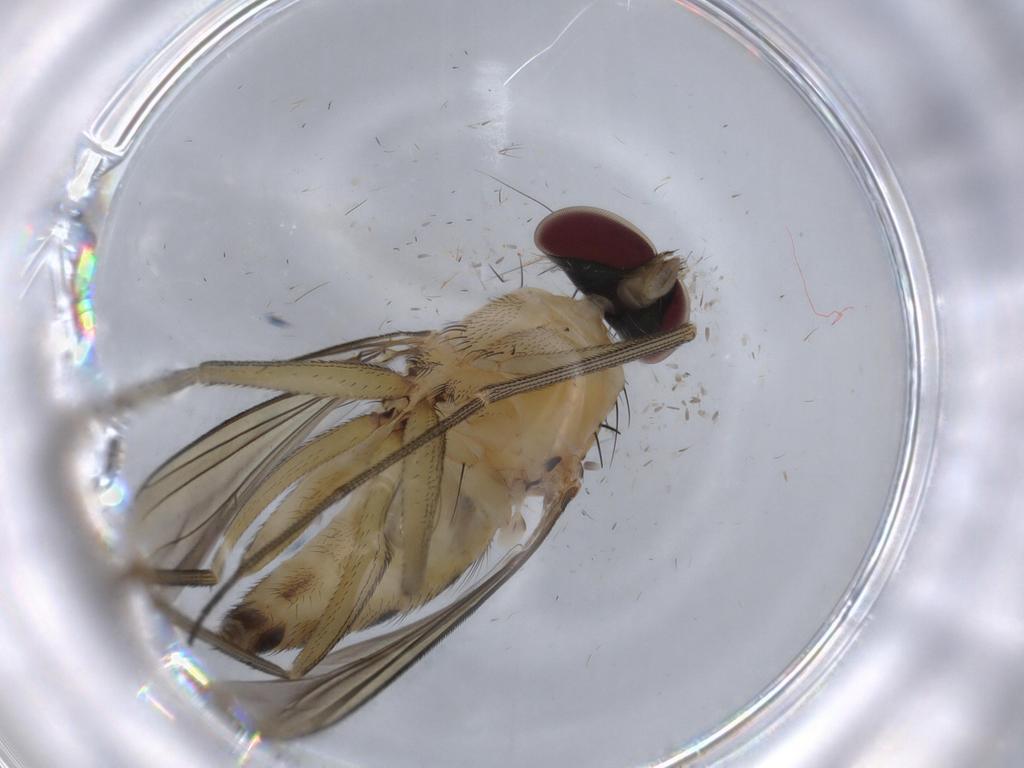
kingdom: Animalia
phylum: Arthropoda
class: Insecta
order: Diptera
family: Dolichopodidae
